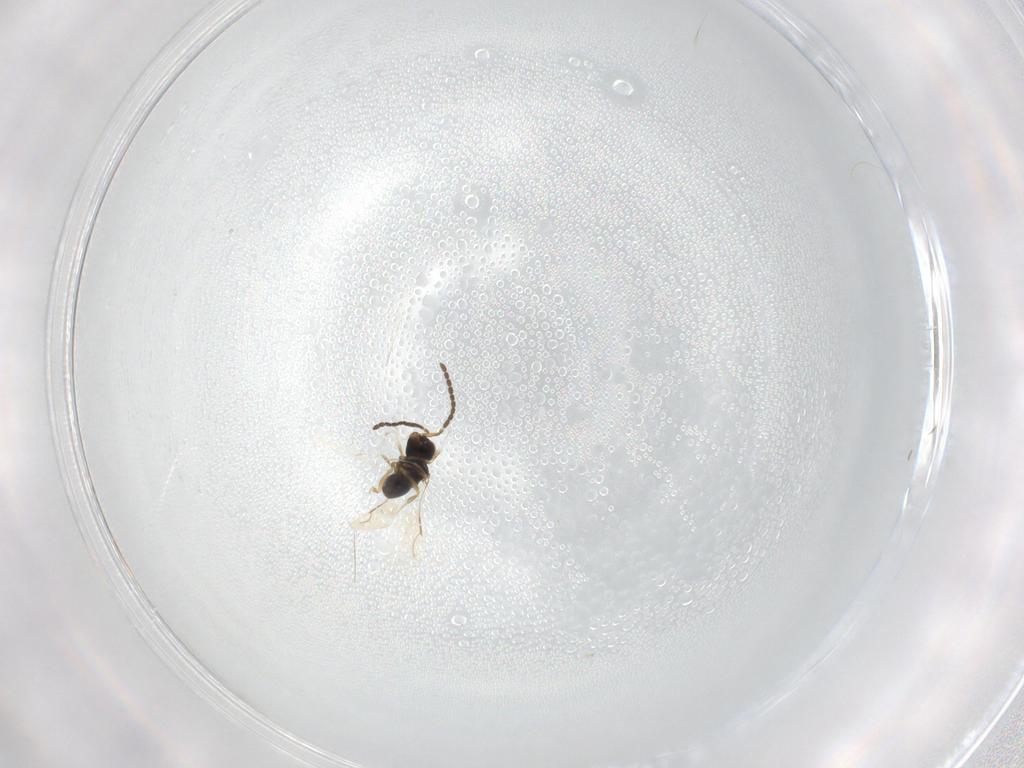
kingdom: Animalia
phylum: Arthropoda
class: Insecta
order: Hymenoptera
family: Ceraphronidae
